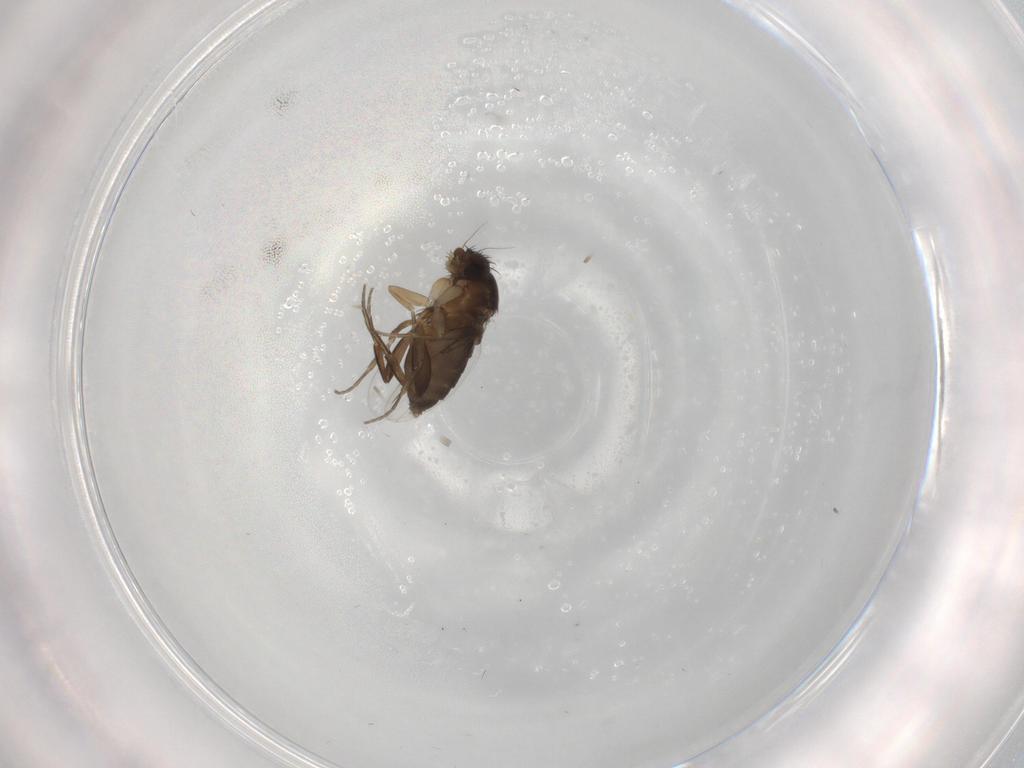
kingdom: Animalia
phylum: Arthropoda
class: Insecta
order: Diptera
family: Phoridae
